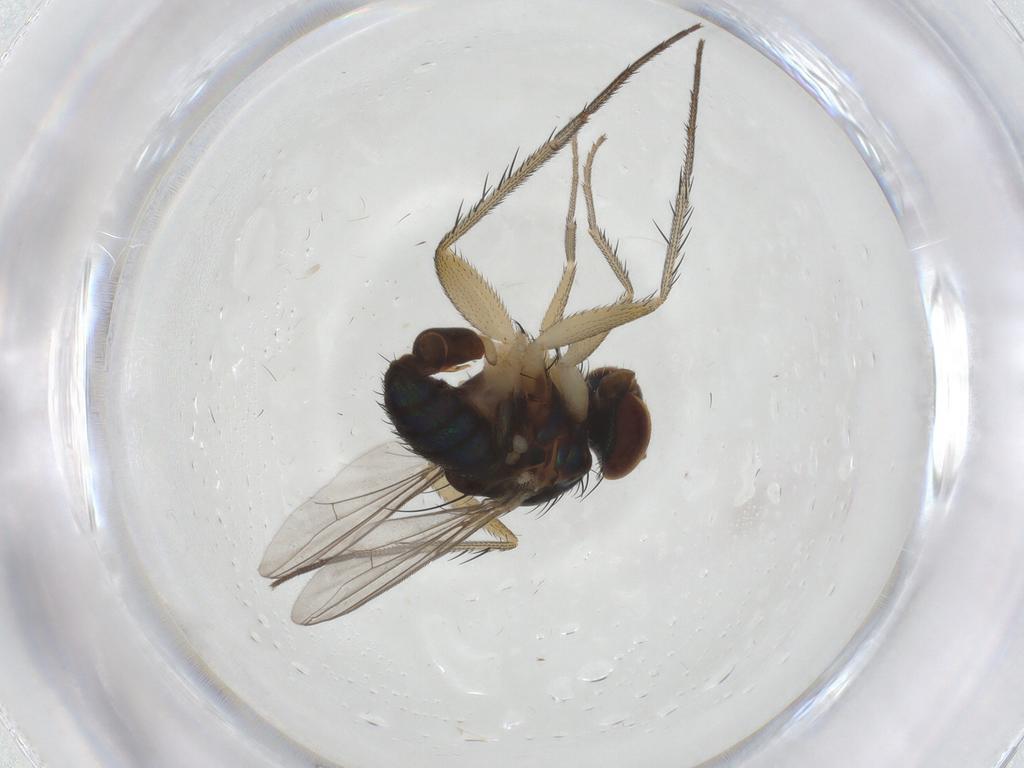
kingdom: Animalia
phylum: Arthropoda
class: Insecta
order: Diptera
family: Dolichopodidae
